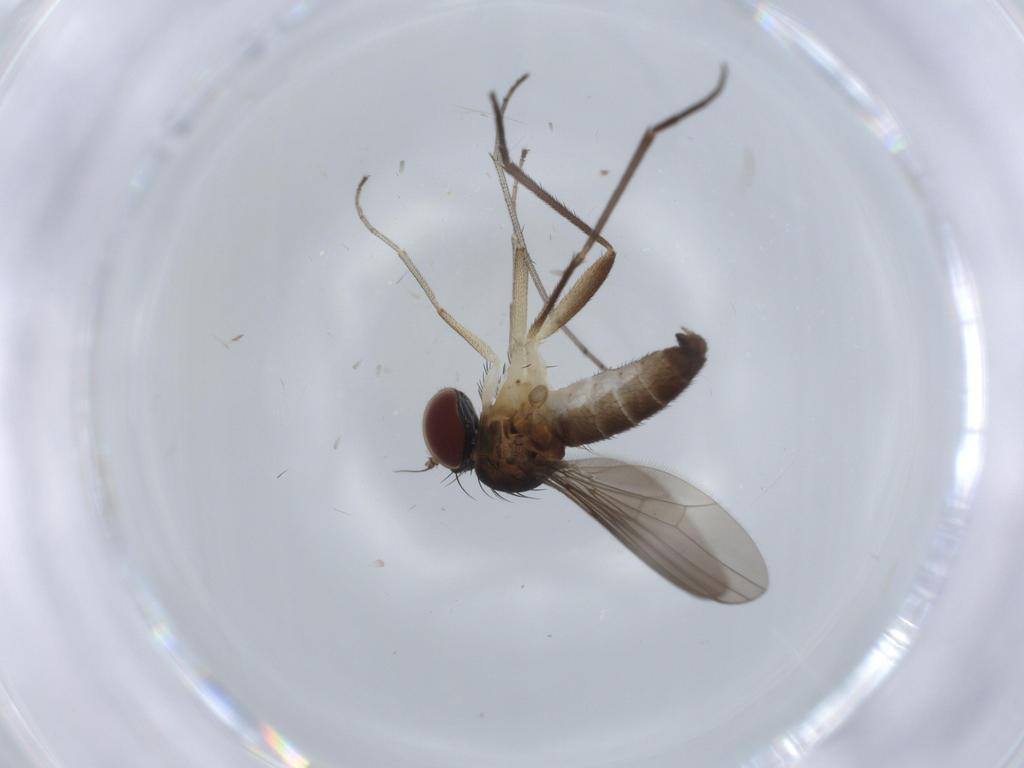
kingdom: Animalia
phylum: Arthropoda
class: Insecta
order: Diptera
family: Dolichopodidae
